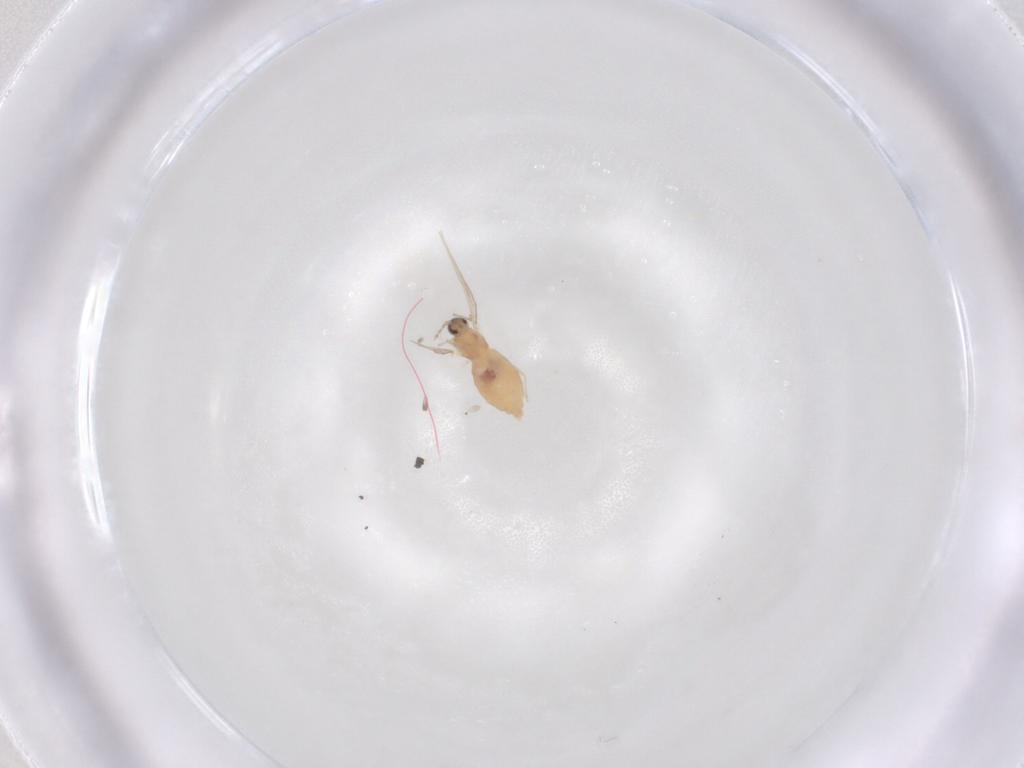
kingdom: Animalia
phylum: Arthropoda
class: Insecta
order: Diptera
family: Cecidomyiidae
